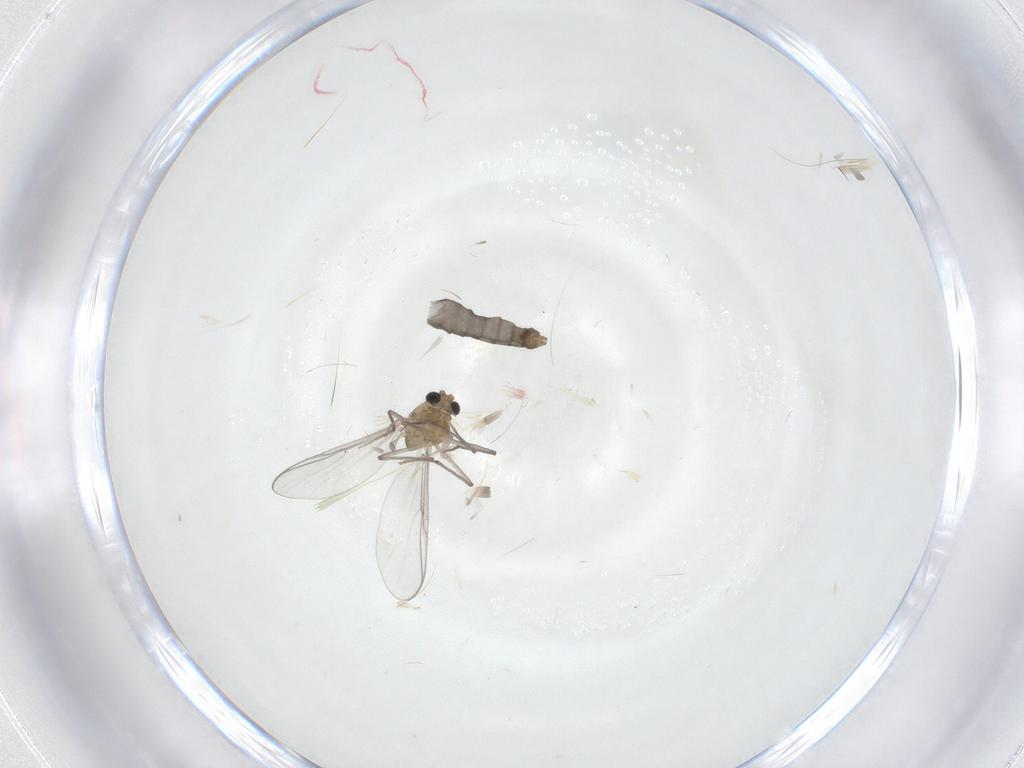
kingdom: Animalia
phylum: Arthropoda
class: Insecta
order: Diptera
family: Chironomidae
